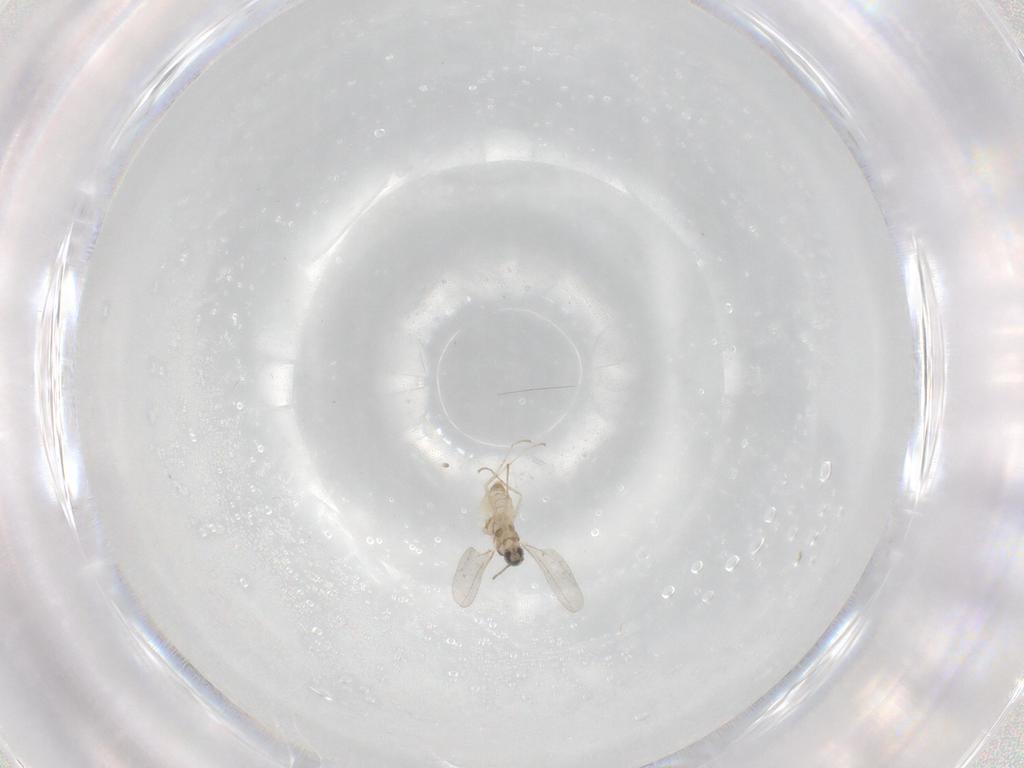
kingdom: Animalia
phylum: Arthropoda
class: Insecta
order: Diptera
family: Cecidomyiidae
